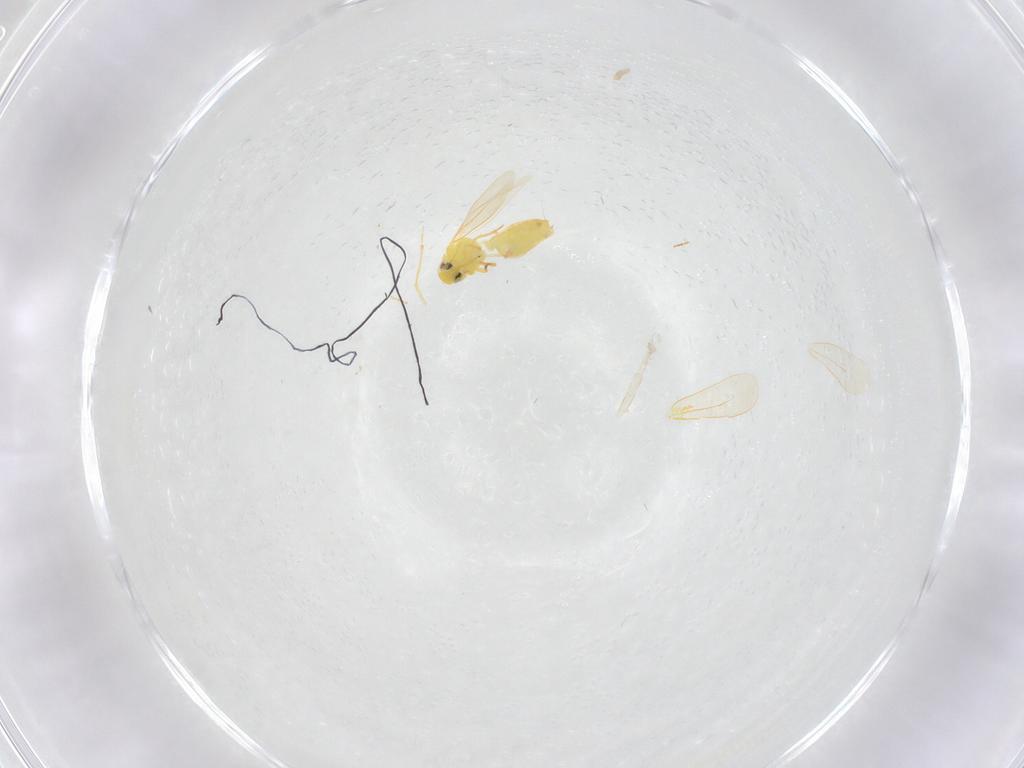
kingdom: Animalia
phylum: Arthropoda
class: Insecta
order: Hemiptera
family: Aleyrodidae
